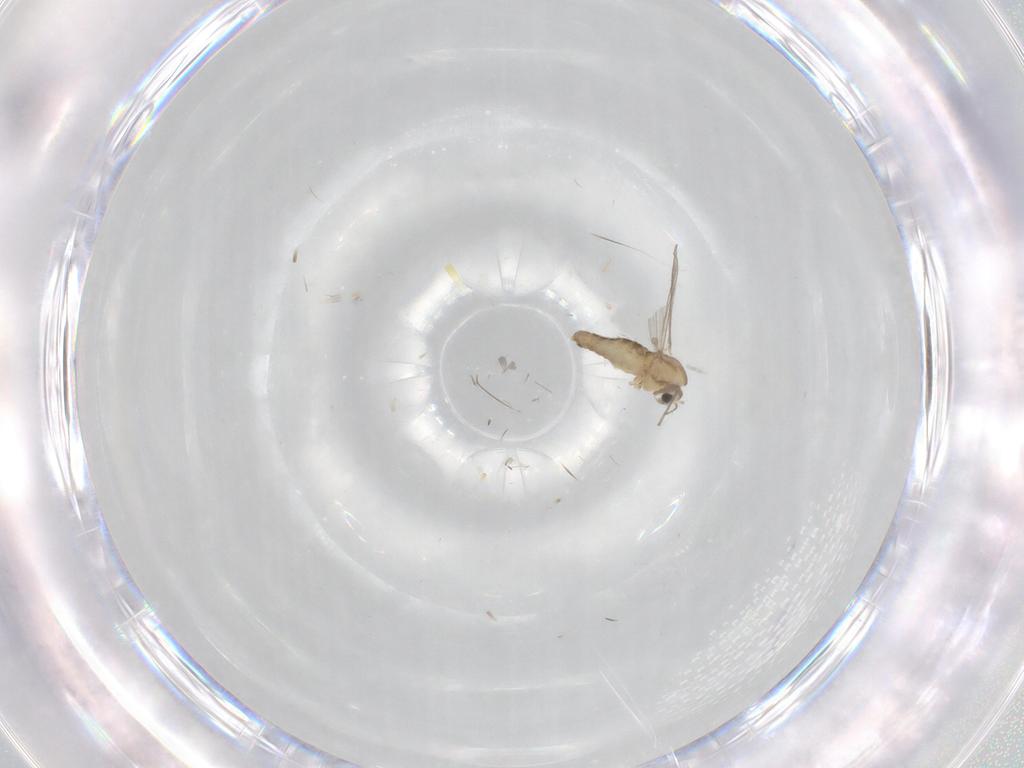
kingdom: Animalia
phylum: Arthropoda
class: Insecta
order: Diptera
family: Chironomidae
